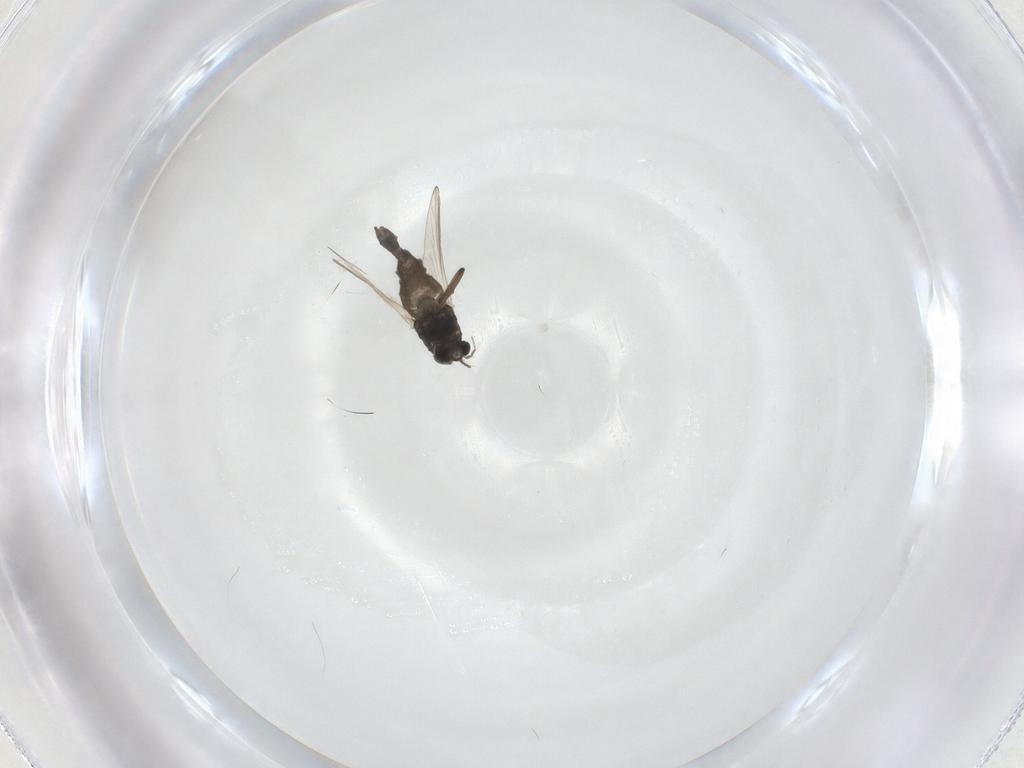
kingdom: Animalia
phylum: Arthropoda
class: Insecta
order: Diptera
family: Chironomidae
